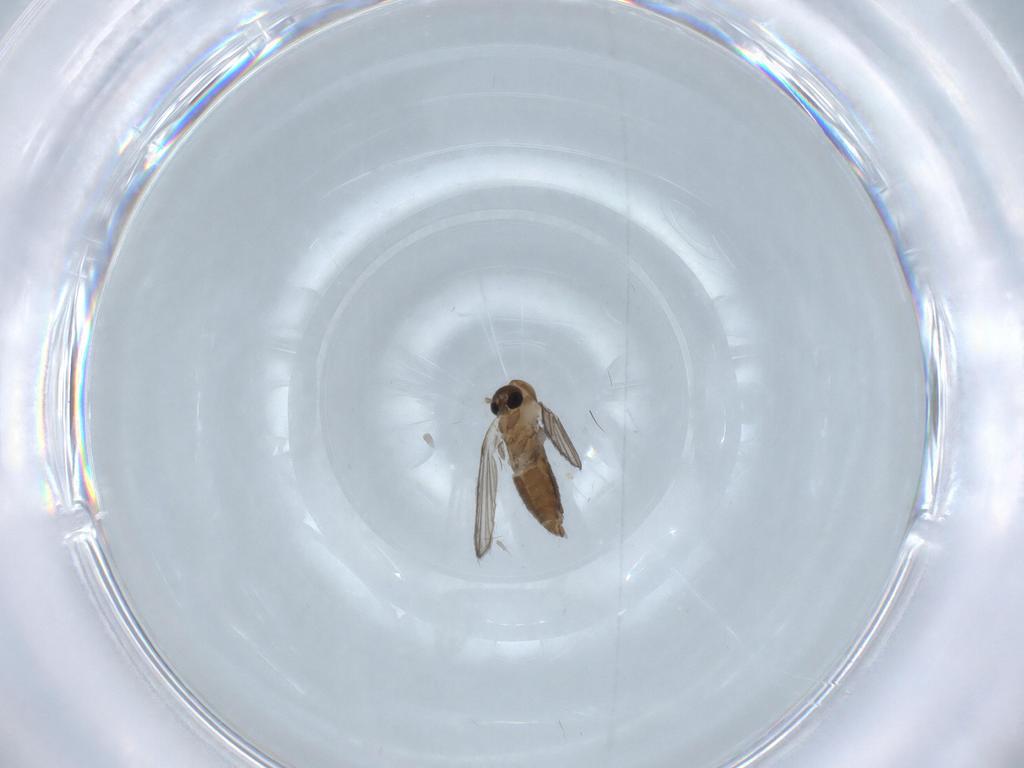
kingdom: Animalia
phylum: Arthropoda
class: Insecta
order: Diptera
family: Psychodidae
